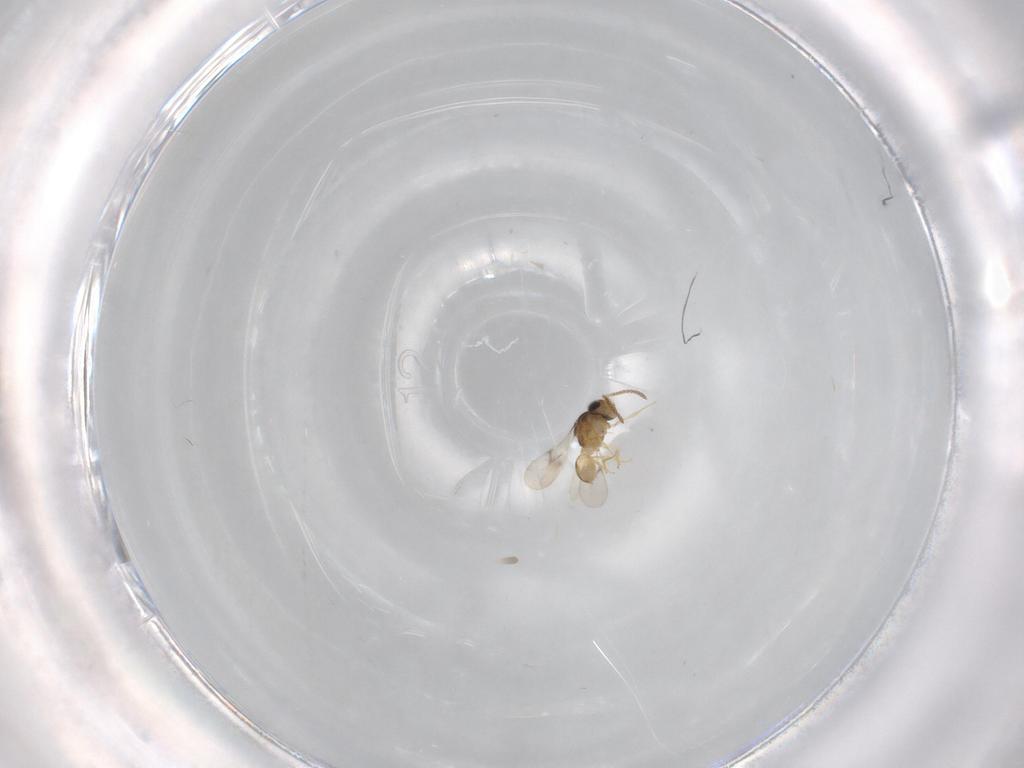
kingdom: Animalia
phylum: Arthropoda
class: Insecta
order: Hymenoptera
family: Scelionidae
